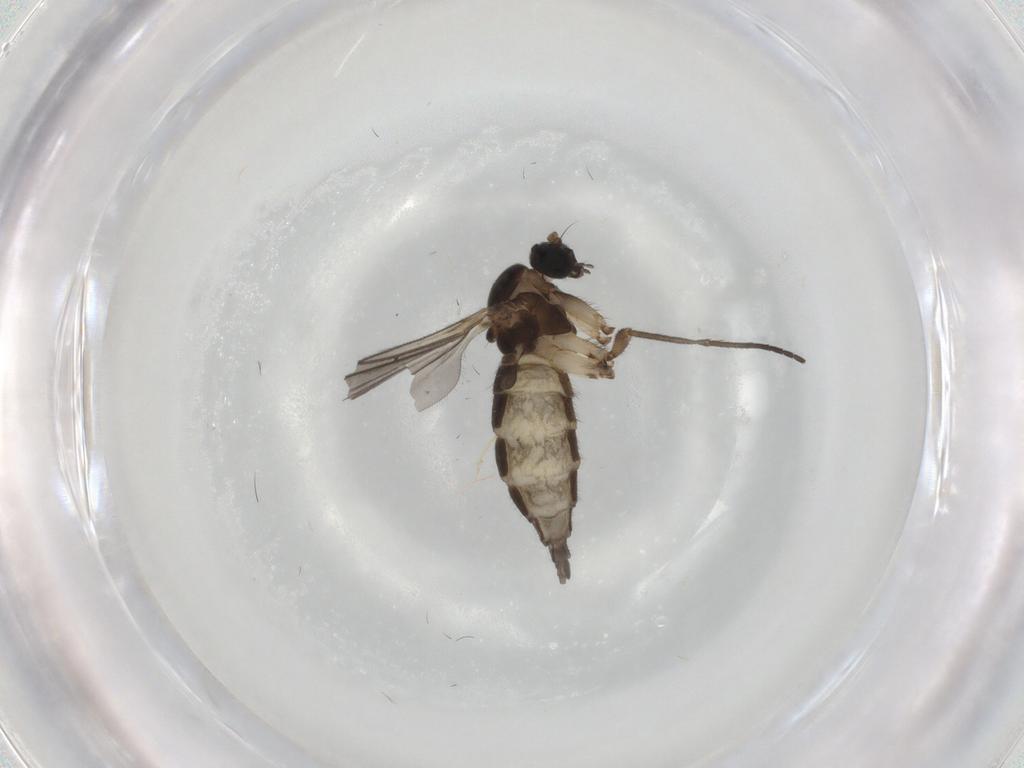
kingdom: Animalia
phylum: Arthropoda
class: Insecta
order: Diptera
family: Sciaridae
